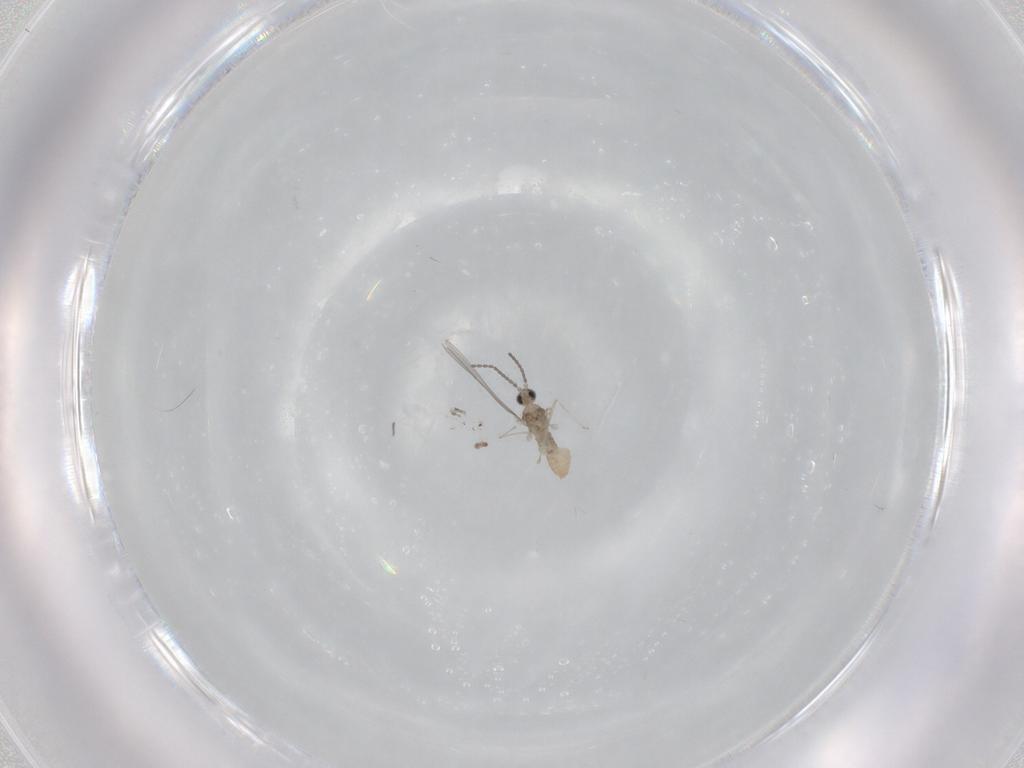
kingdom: Animalia
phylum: Arthropoda
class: Insecta
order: Diptera
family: Cecidomyiidae
